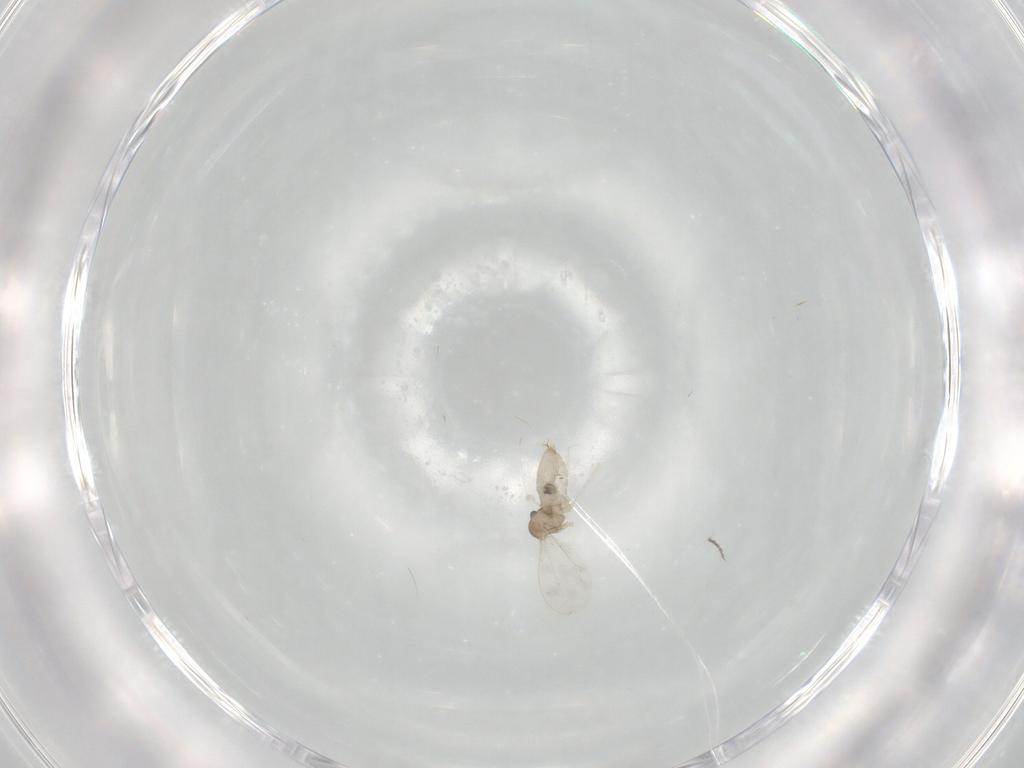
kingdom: Animalia
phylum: Arthropoda
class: Insecta
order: Diptera
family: Cecidomyiidae
